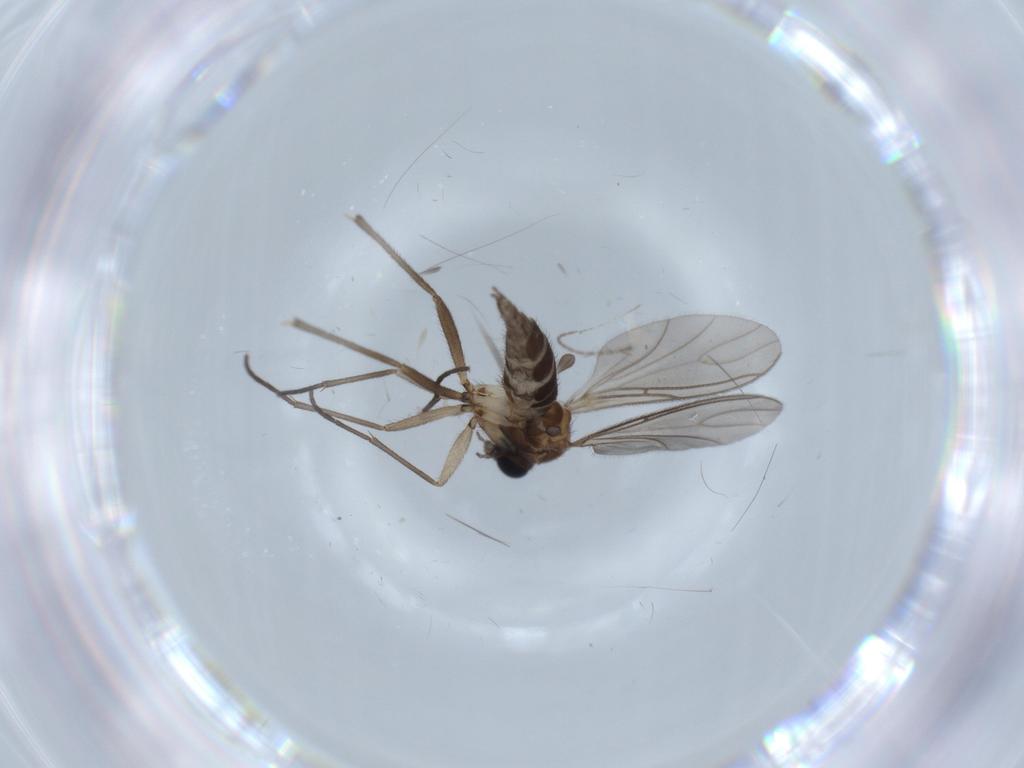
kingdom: Animalia
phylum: Arthropoda
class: Insecta
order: Diptera
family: Sciaridae
